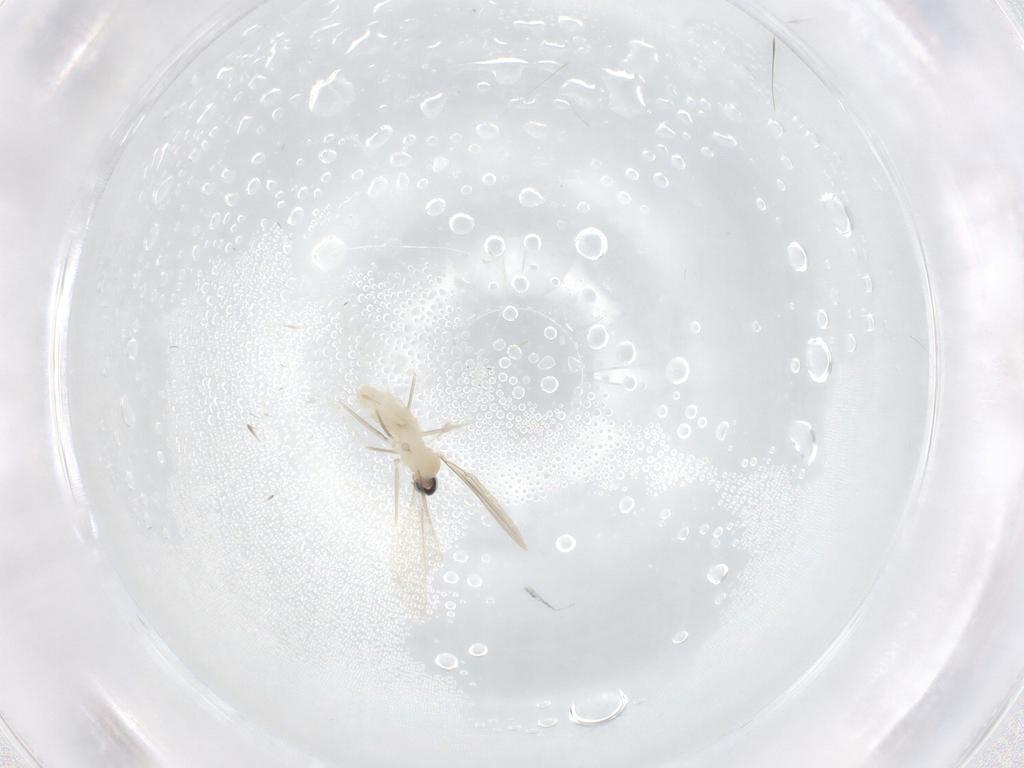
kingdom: Animalia
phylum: Arthropoda
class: Insecta
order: Diptera
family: Cecidomyiidae
